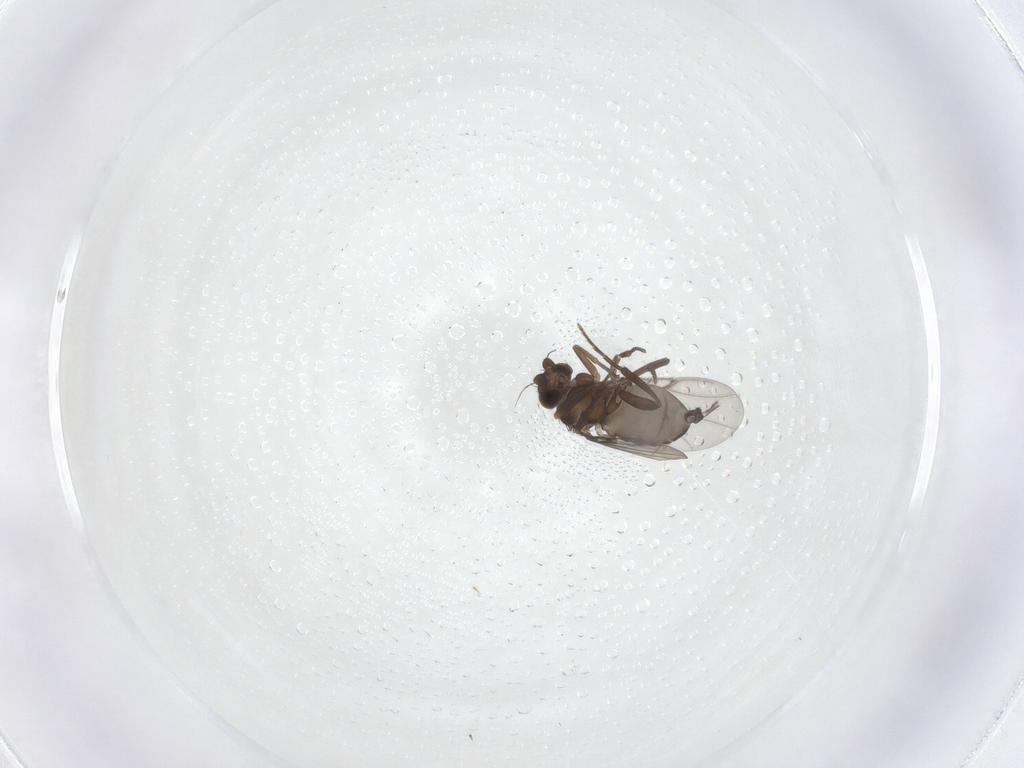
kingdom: Animalia
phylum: Arthropoda
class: Insecta
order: Diptera
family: Phoridae
